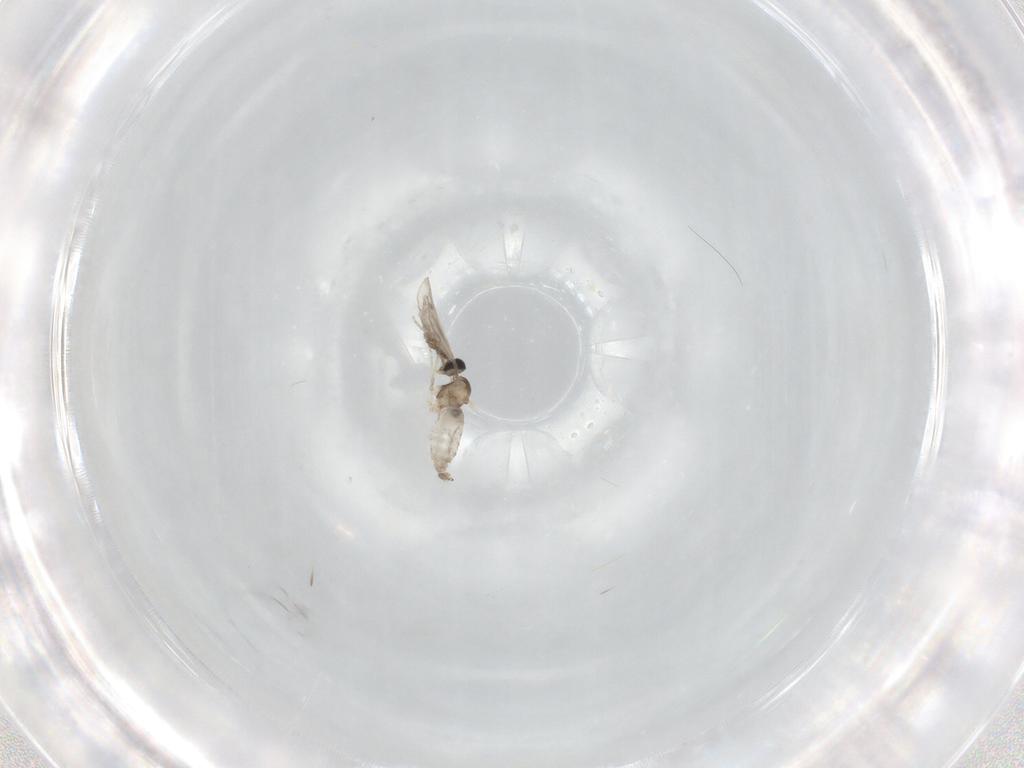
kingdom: Animalia
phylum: Arthropoda
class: Insecta
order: Diptera
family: Cecidomyiidae
